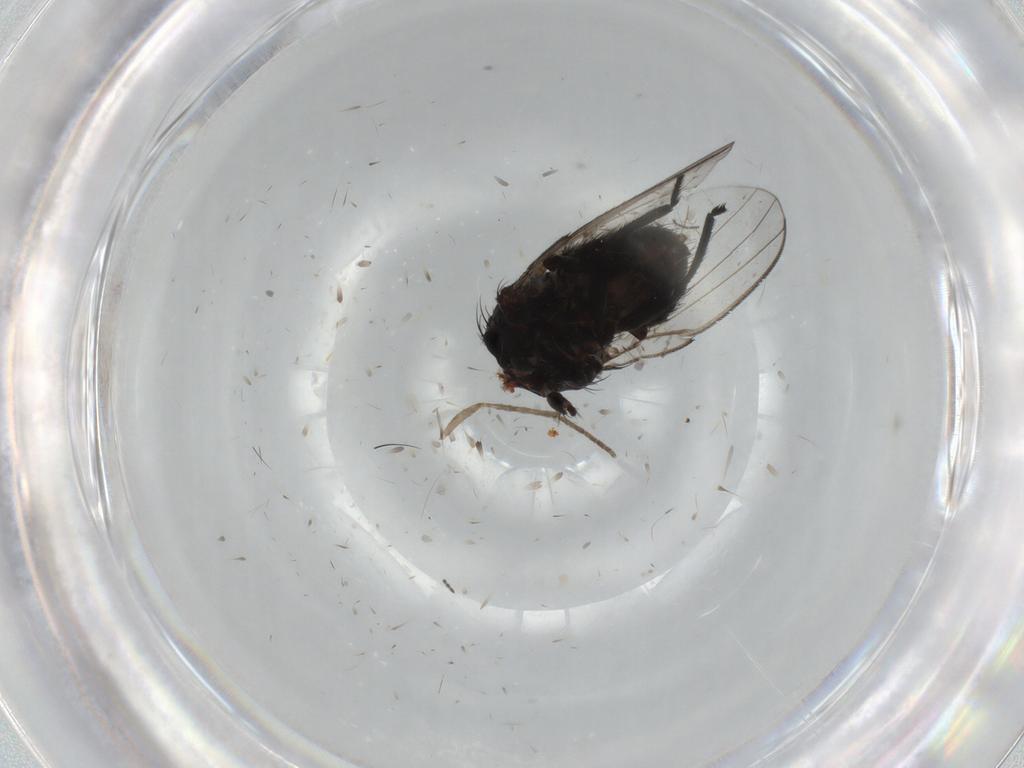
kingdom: Animalia
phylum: Arthropoda
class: Insecta
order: Diptera
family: Milichiidae
